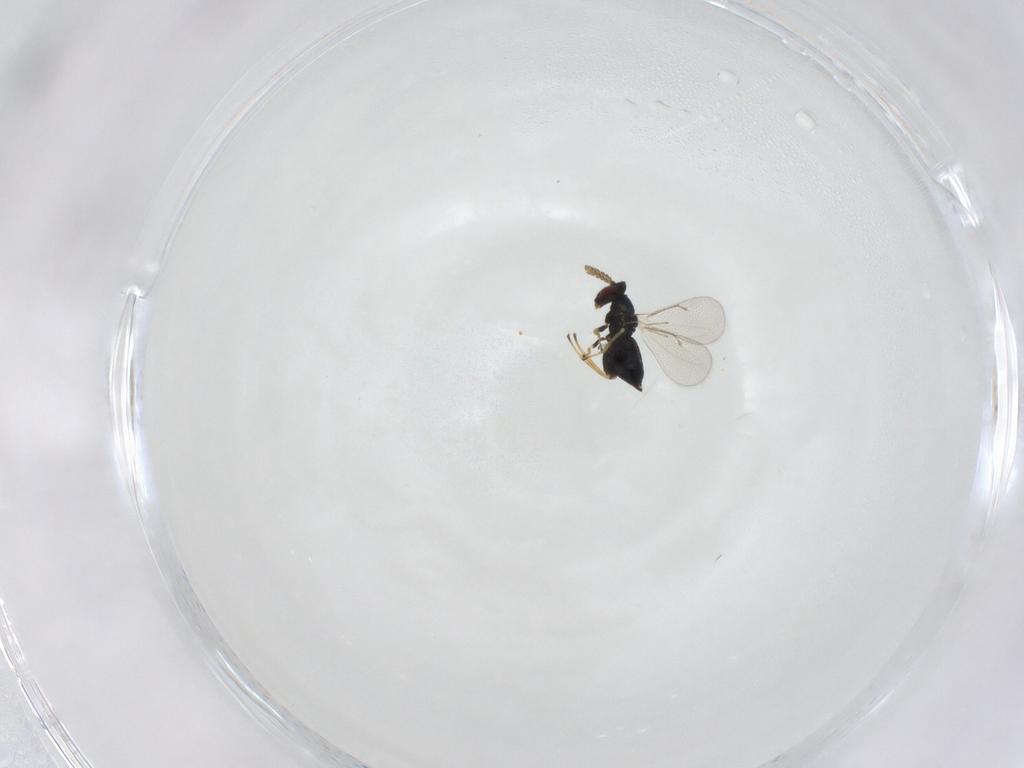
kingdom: Animalia
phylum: Arthropoda
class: Insecta
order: Hymenoptera
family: Eulophidae
